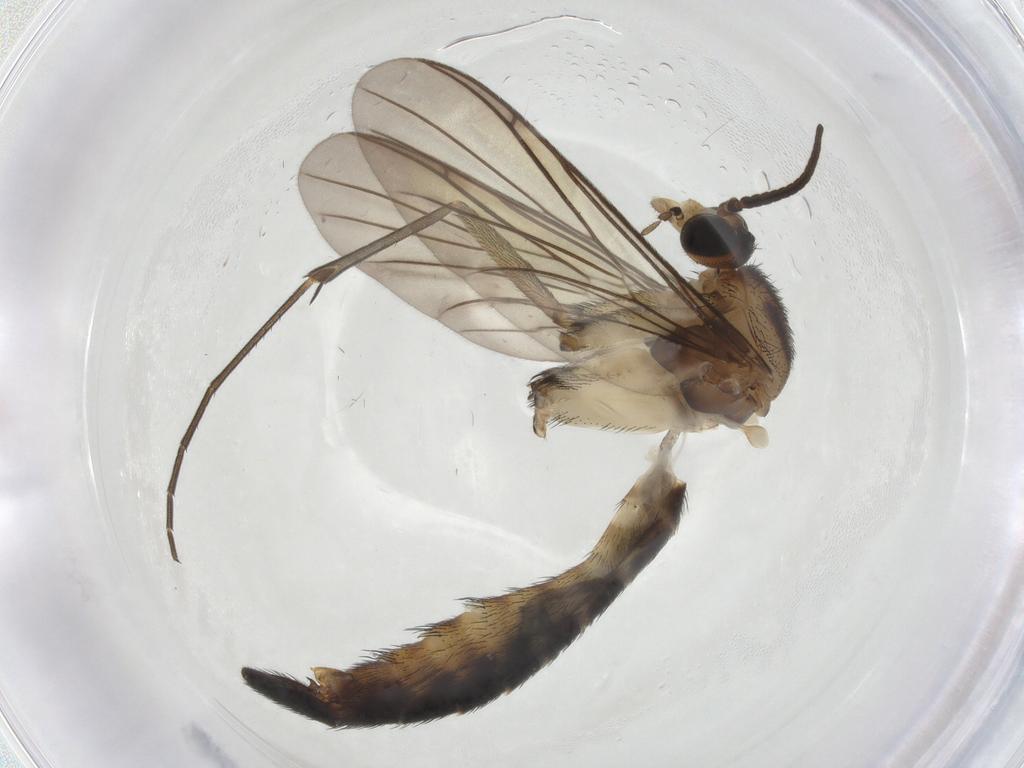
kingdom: Animalia
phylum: Arthropoda
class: Insecta
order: Diptera
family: Keroplatidae
